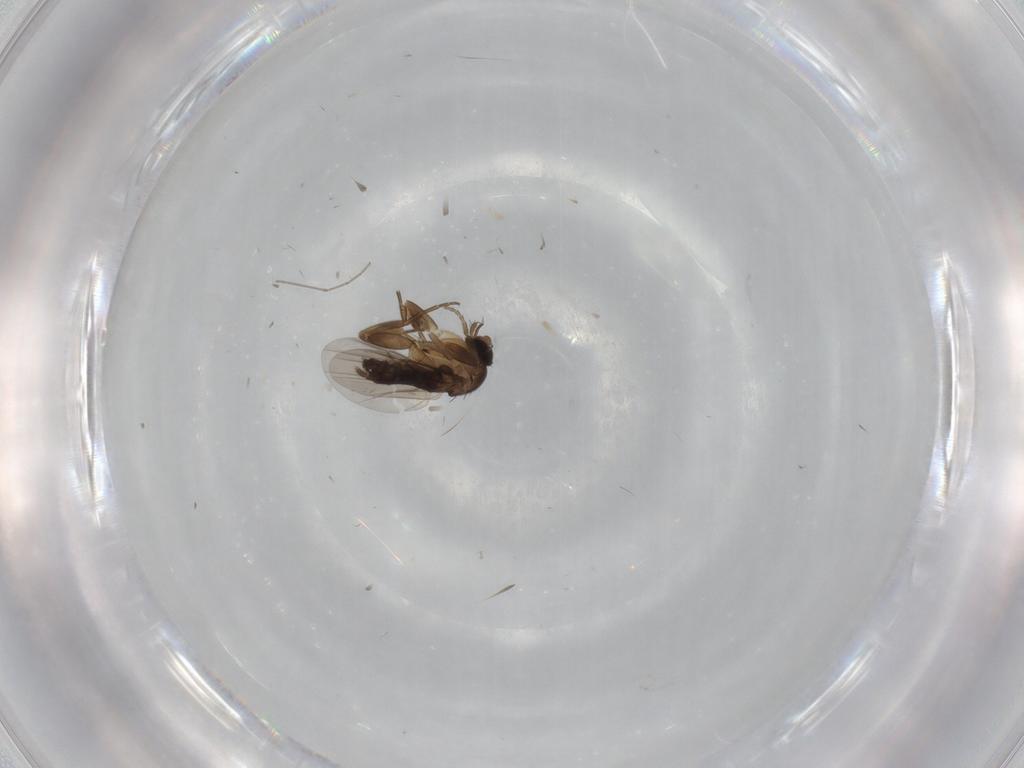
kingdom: Animalia
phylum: Arthropoda
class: Insecta
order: Diptera
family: Phoridae
